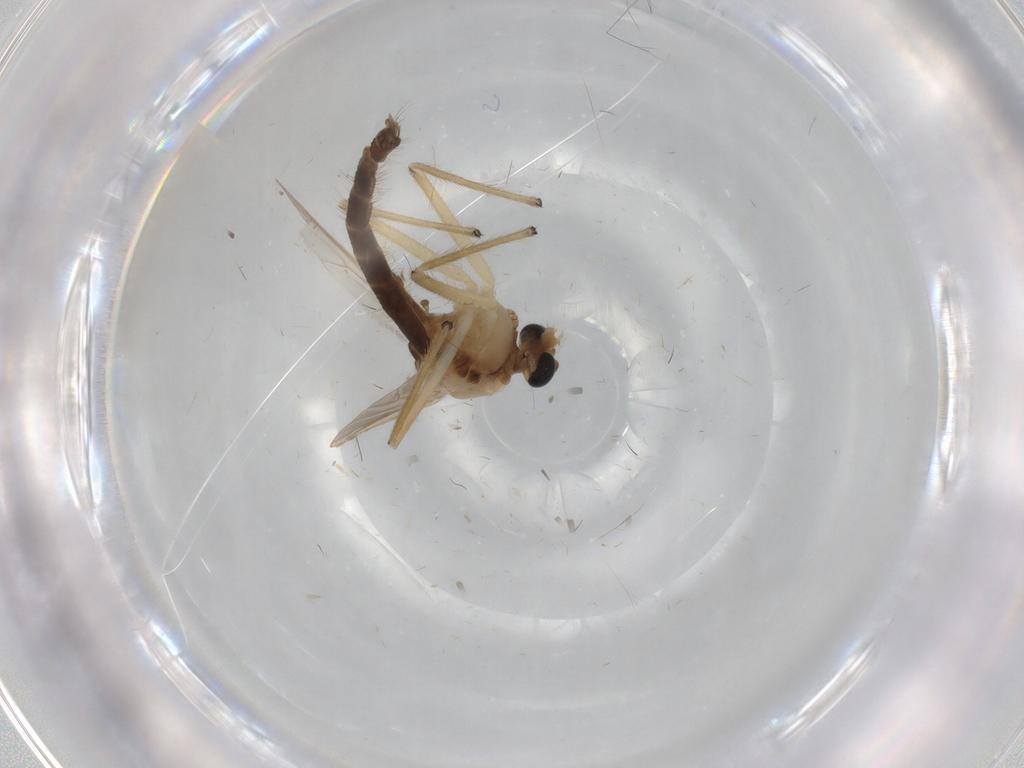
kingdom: Animalia
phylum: Arthropoda
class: Insecta
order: Diptera
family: Chironomidae
